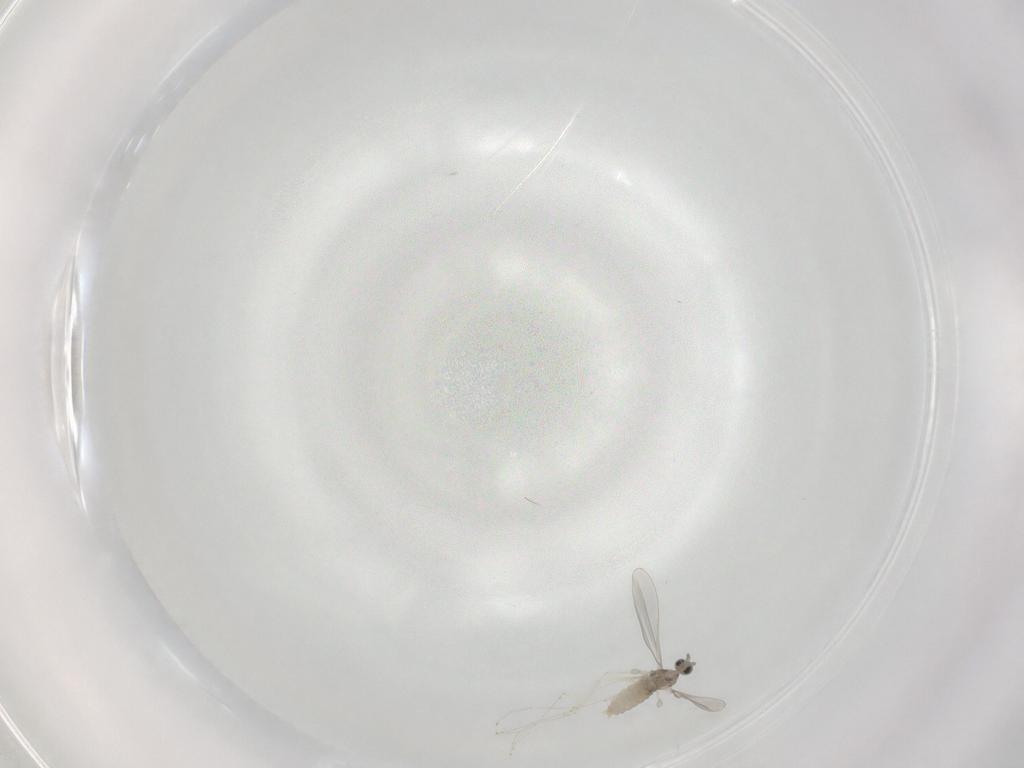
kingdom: Animalia
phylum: Arthropoda
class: Insecta
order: Diptera
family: Cecidomyiidae
